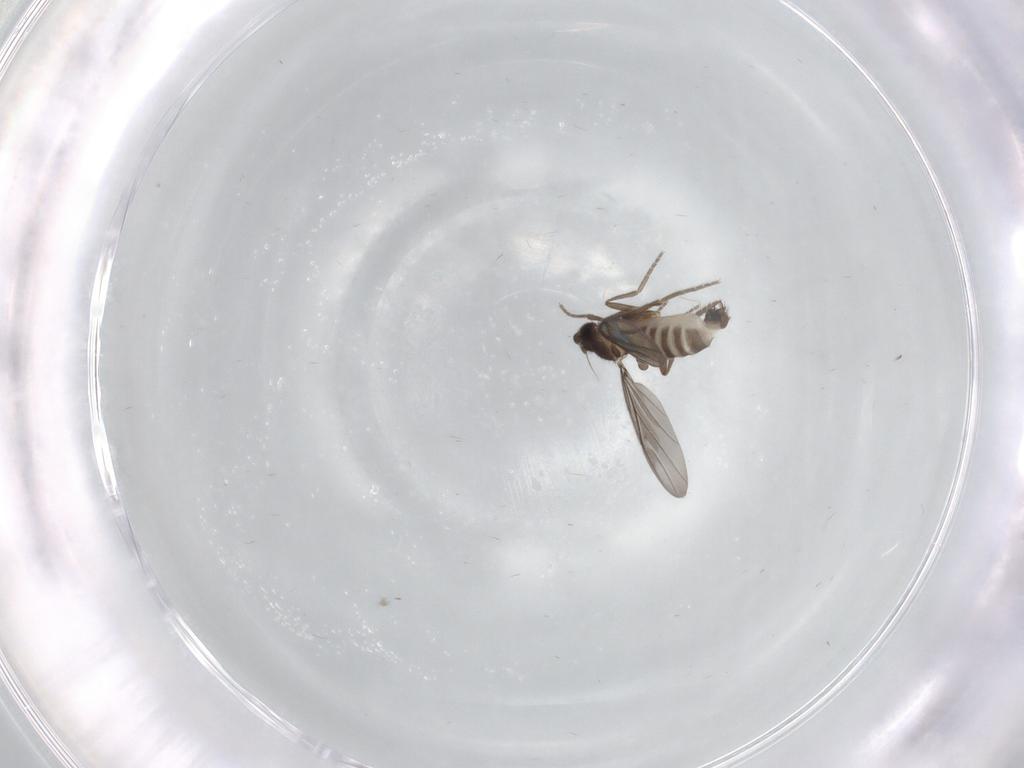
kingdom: Animalia
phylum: Arthropoda
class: Insecta
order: Diptera
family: Phoridae
